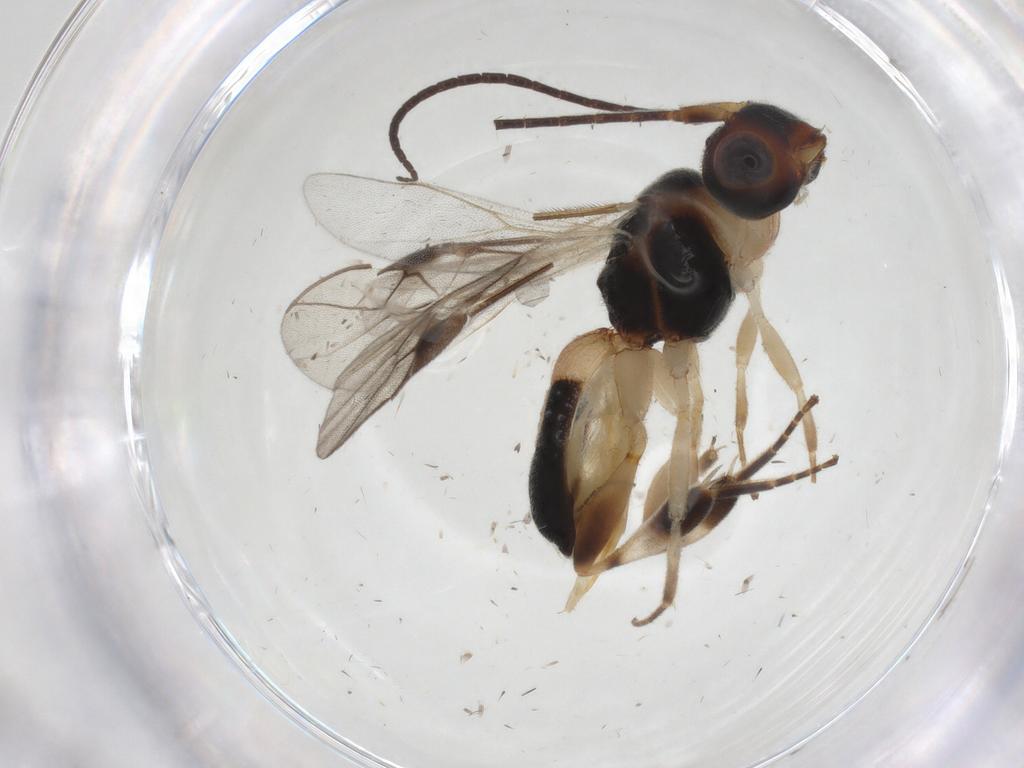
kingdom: Animalia
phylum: Arthropoda
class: Insecta
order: Hymenoptera
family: Braconidae
